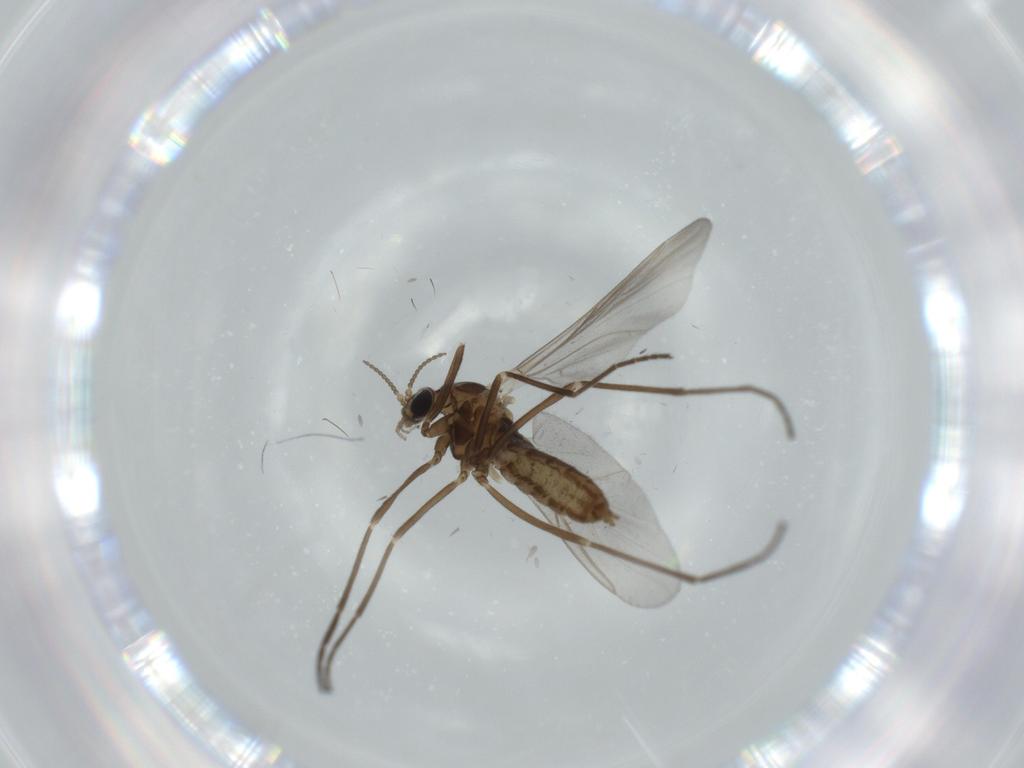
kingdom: Animalia
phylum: Arthropoda
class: Insecta
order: Diptera
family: Cecidomyiidae
